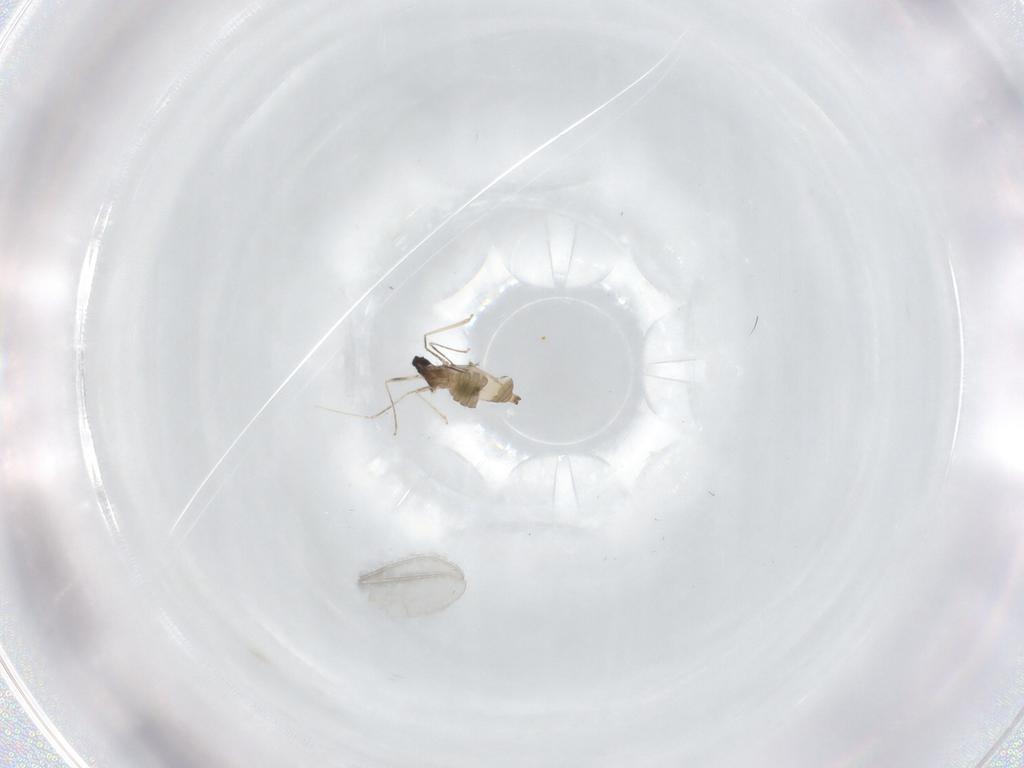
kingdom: Animalia
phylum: Arthropoda
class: Insecta
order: Diptera
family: Cecidomyiidae
